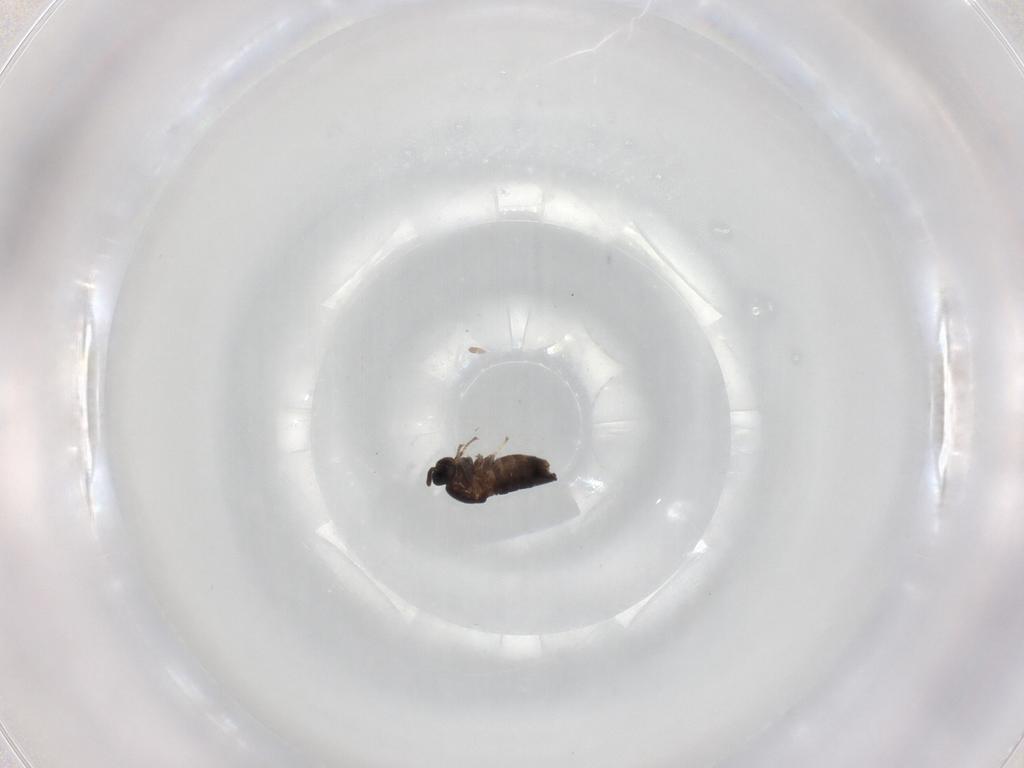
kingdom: Animalia
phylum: Arthropoda
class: Insecta
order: Diptera
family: Scatopsidae
